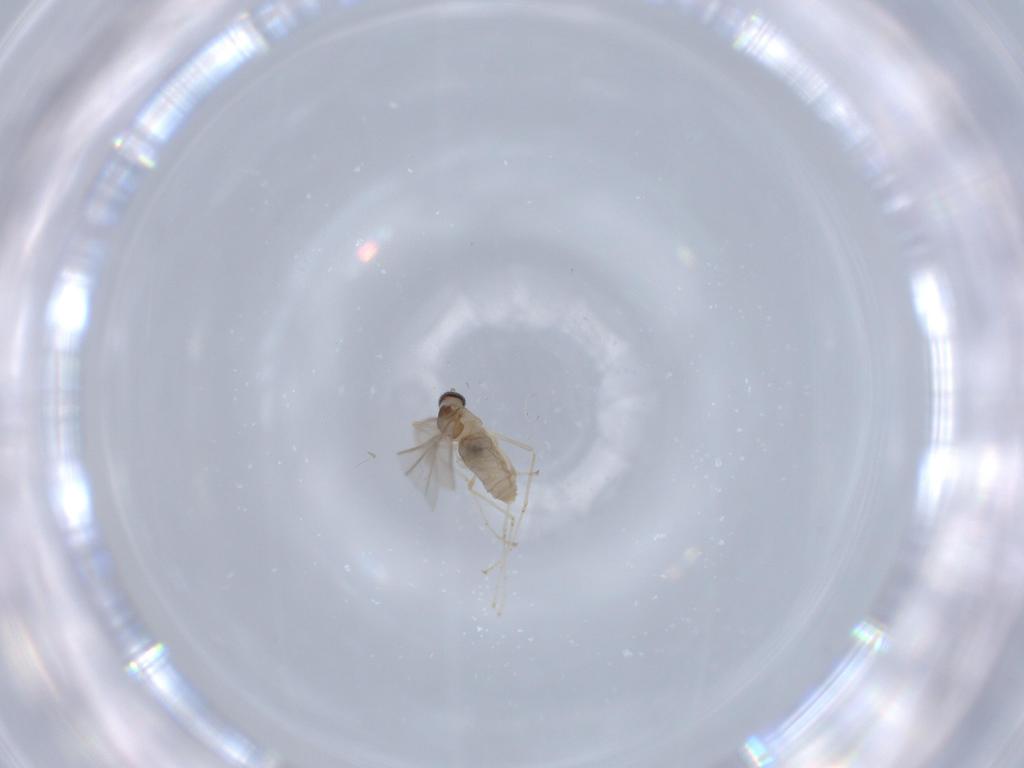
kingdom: Animalia
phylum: Arthropoda
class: Insecta
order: Diptera
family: Cecidomyiidae
